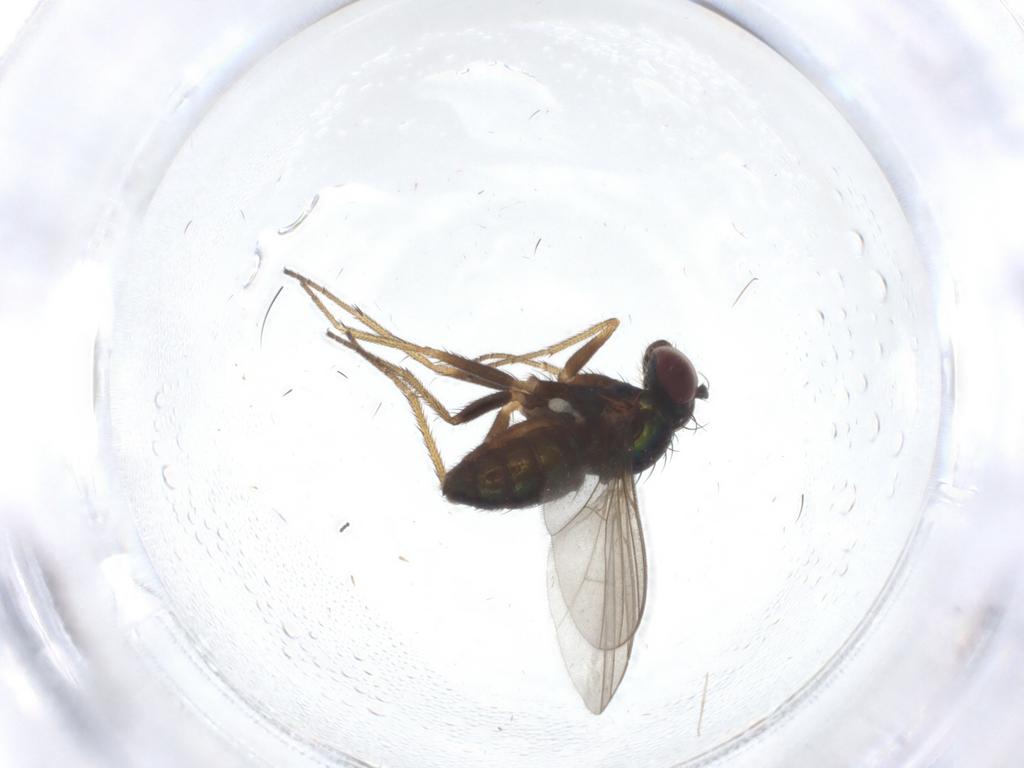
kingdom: Animalia
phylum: Arthropoda
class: Insecta
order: Diptera
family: Dolichopodidae
